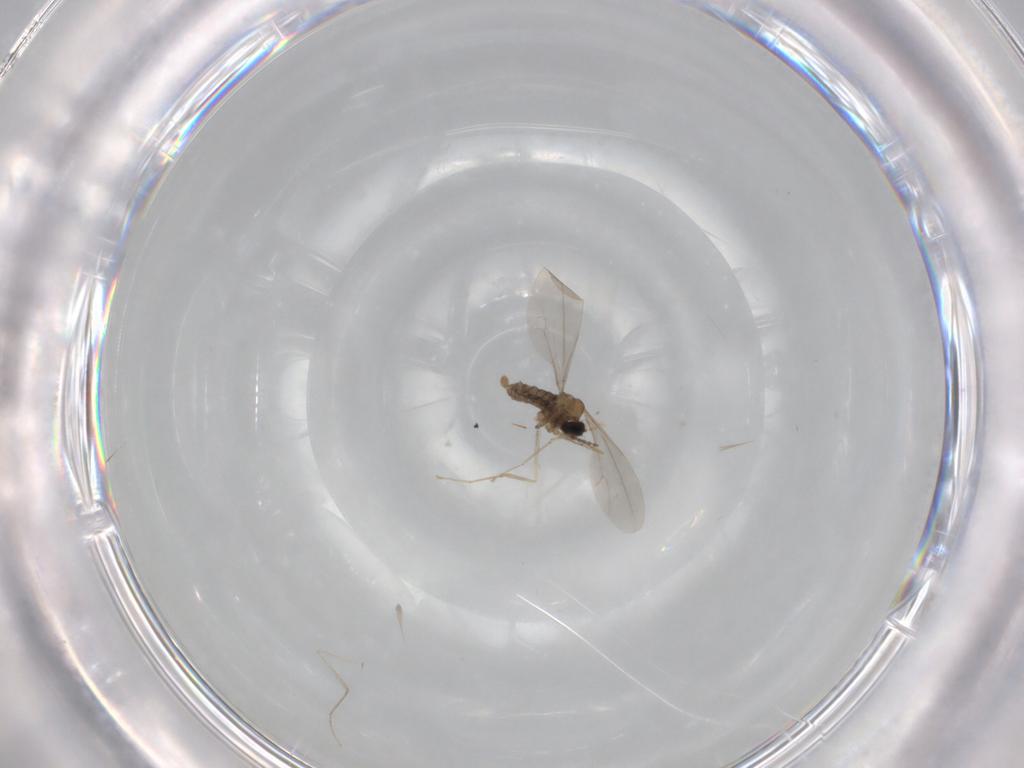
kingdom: Animalia
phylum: Arthropoda
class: Insecta
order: Diptera
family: Cecidomyiidae
